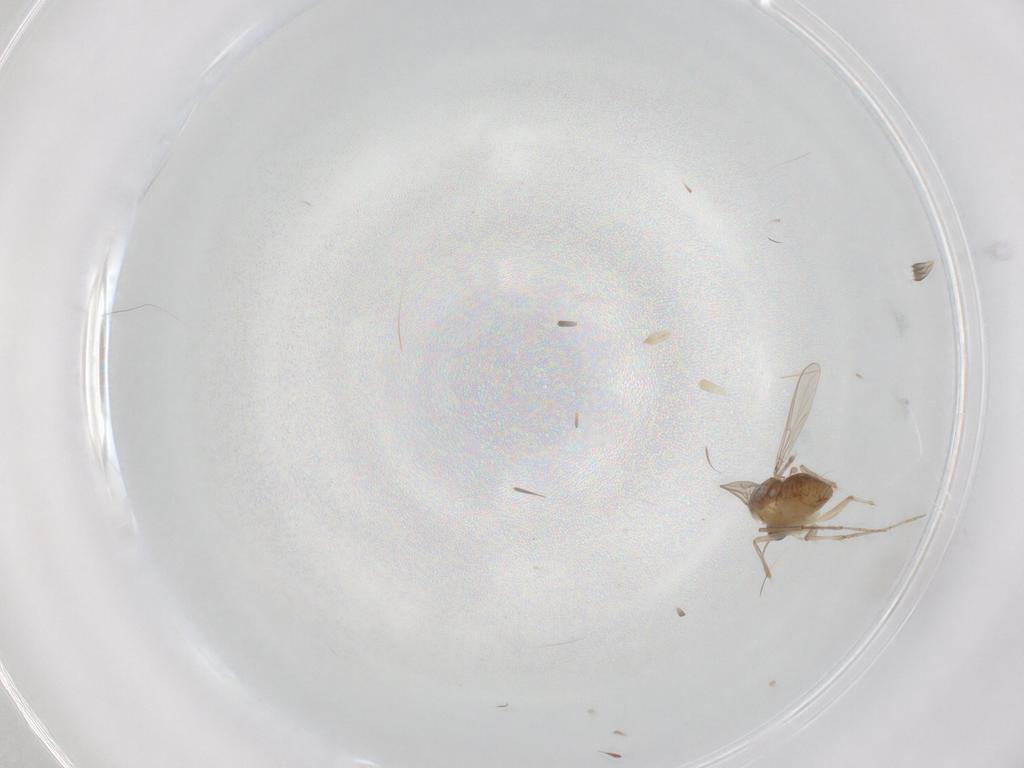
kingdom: Animalia
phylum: Arthropoda
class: Insecta
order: Diptera
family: Chironomidae
